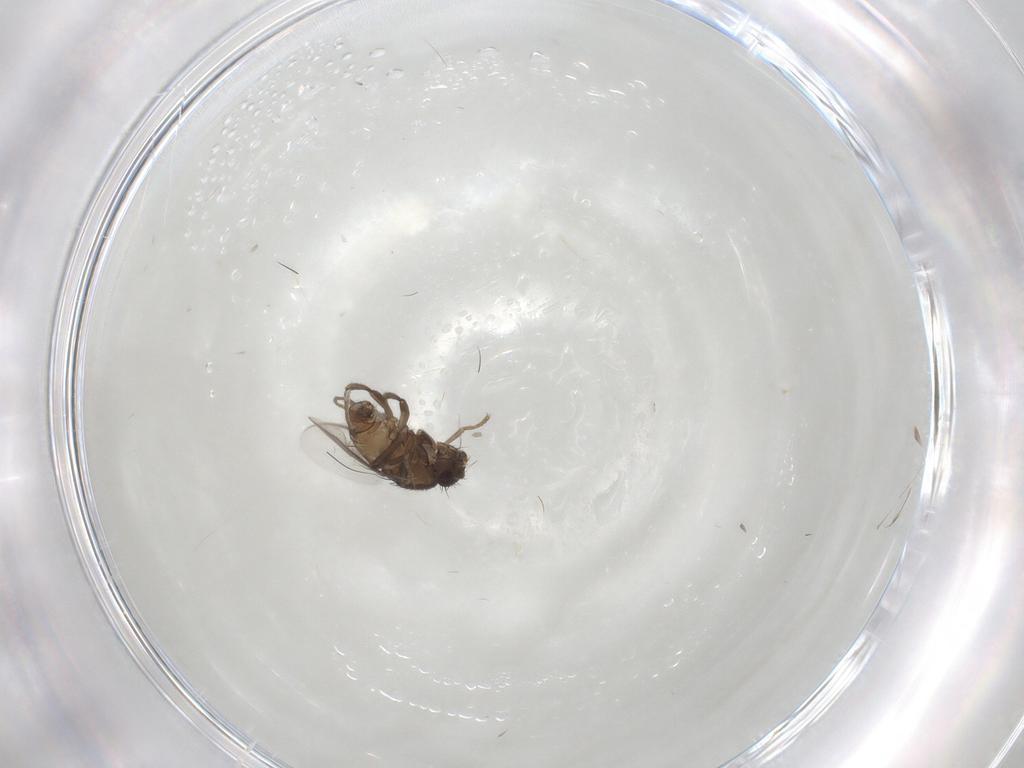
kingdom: Animalia
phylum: Arthropoda
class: Insecta
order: Diptera
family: Sphaeroceridae
